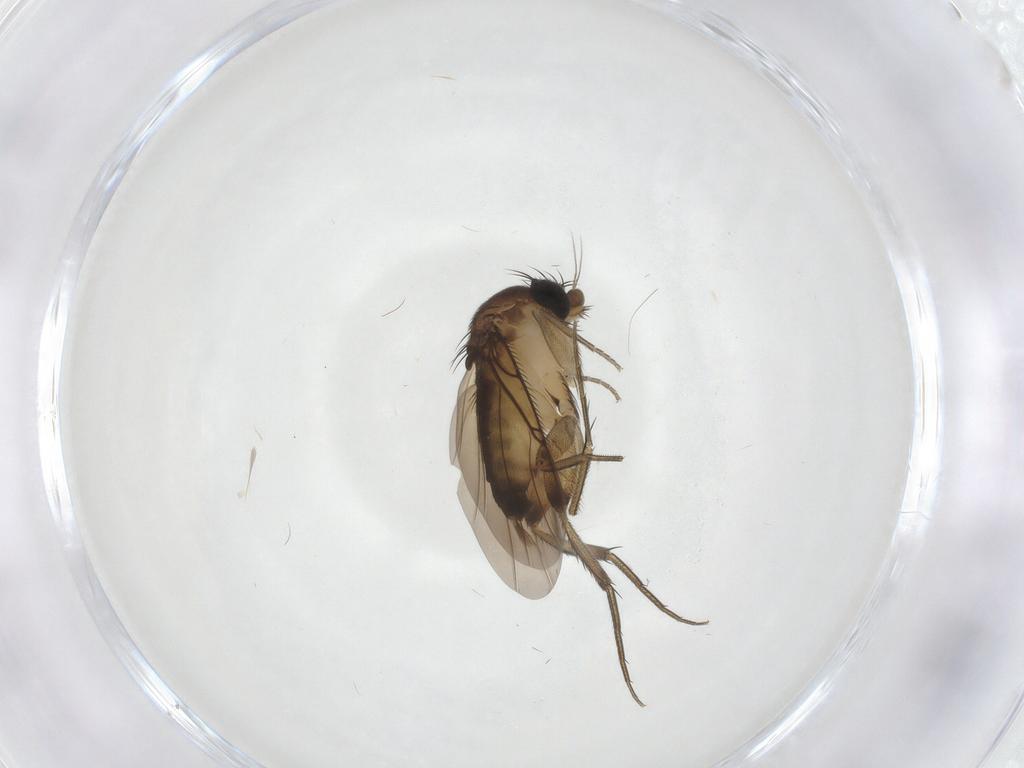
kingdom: Animalia
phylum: Arthropoda
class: Insecta
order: Diptera
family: Phoridae
